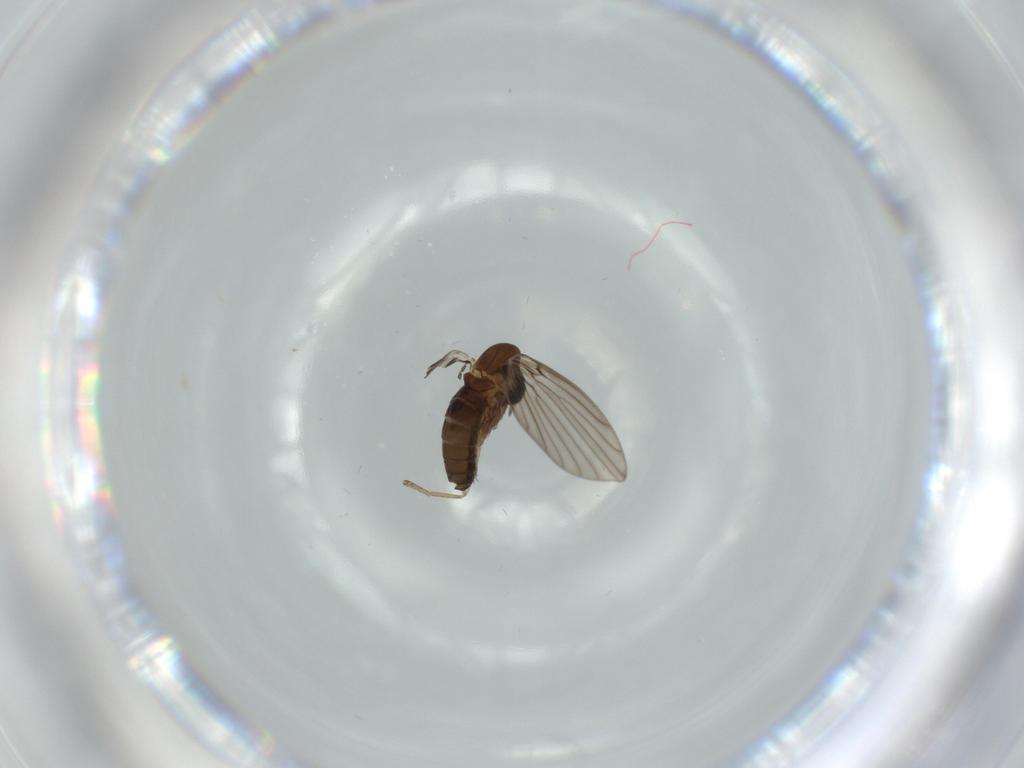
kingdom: Animalia
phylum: Arthropoda
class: Insecta
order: Diptera
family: Psychodidae
